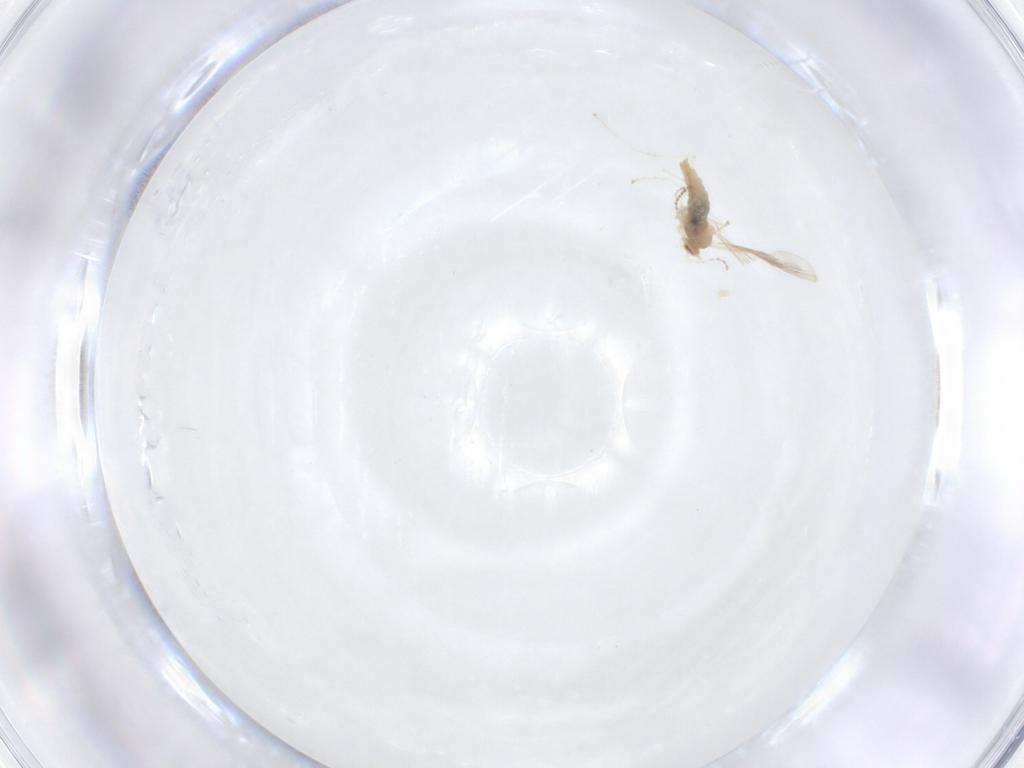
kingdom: Animalia
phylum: Arthropoda
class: Insecta
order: Diptera
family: Cecidomyiidae
